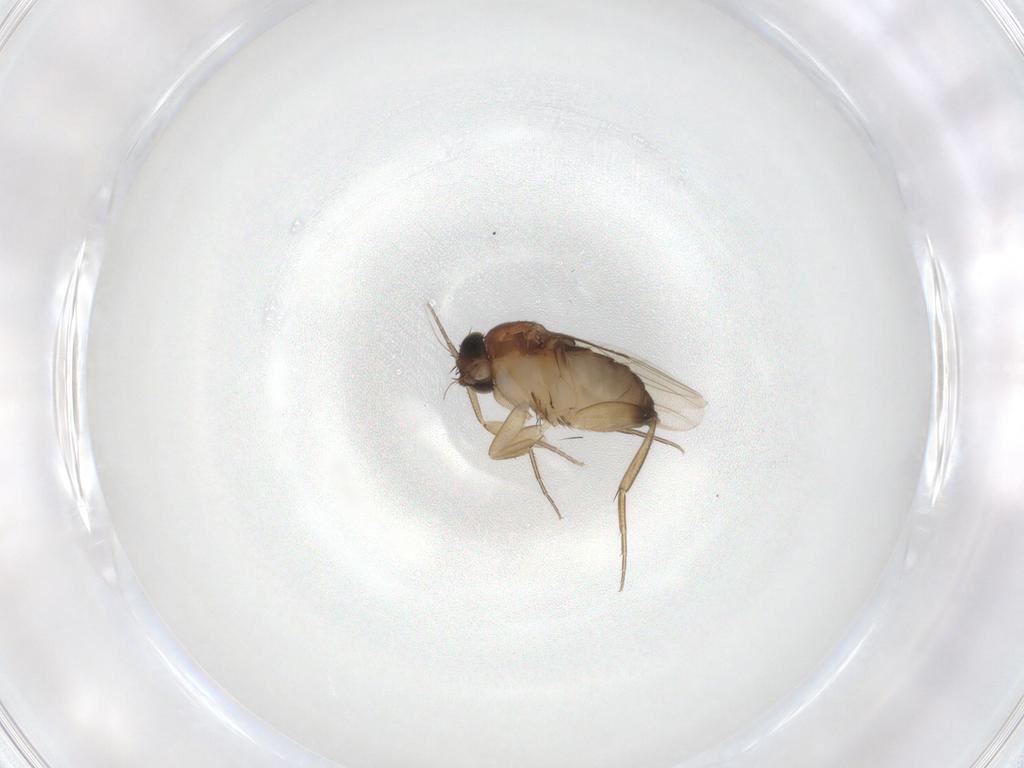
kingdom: Animalia
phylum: Arthropoda
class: Insecta
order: Diptera
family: Phoridae
